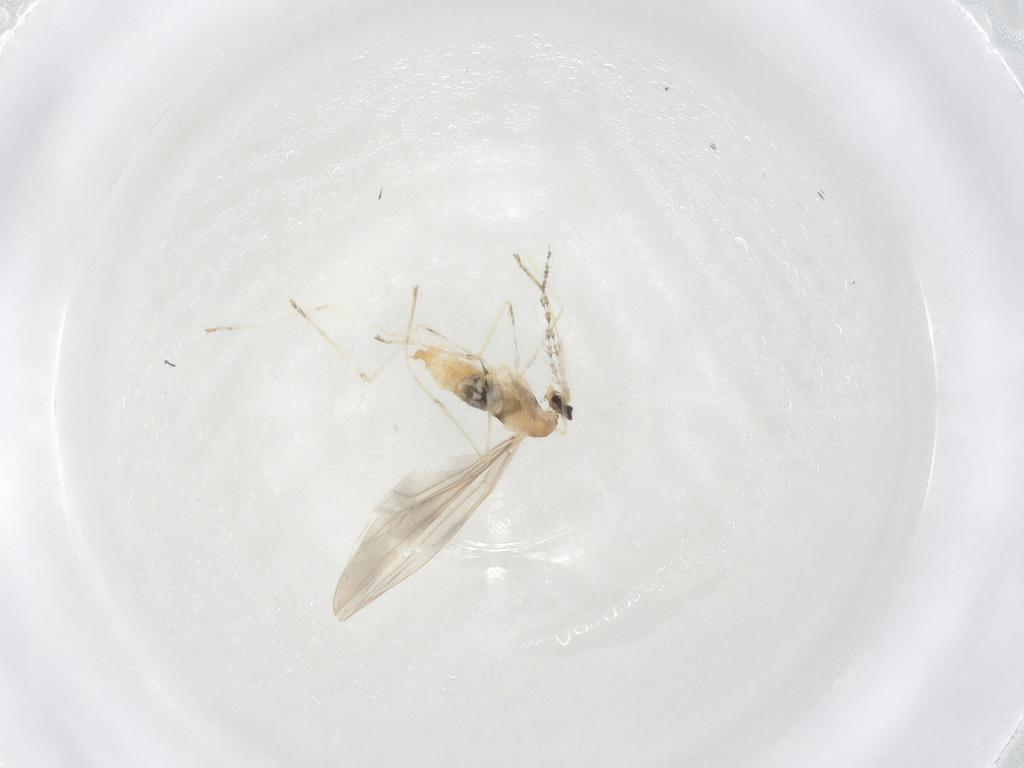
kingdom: Animalia
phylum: Arthropoda
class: Insecta
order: Diptera
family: Cecidomyiidae
